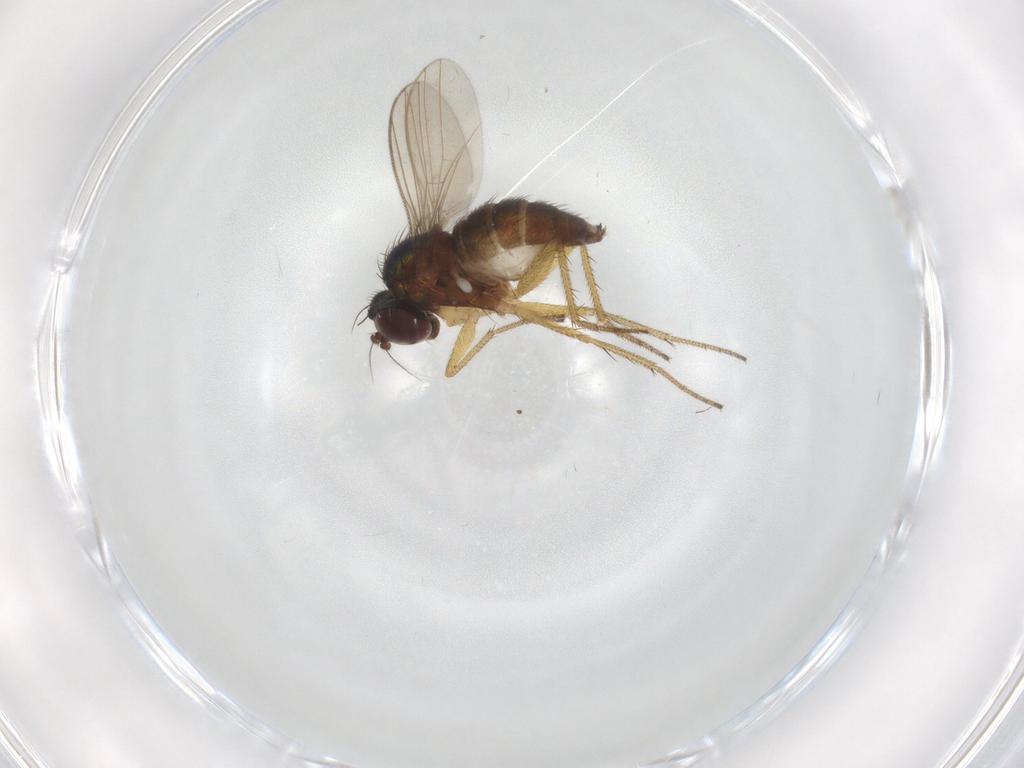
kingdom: Animalia
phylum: Arthropoda
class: Insecta
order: Diptera
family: Dolichopodidae
